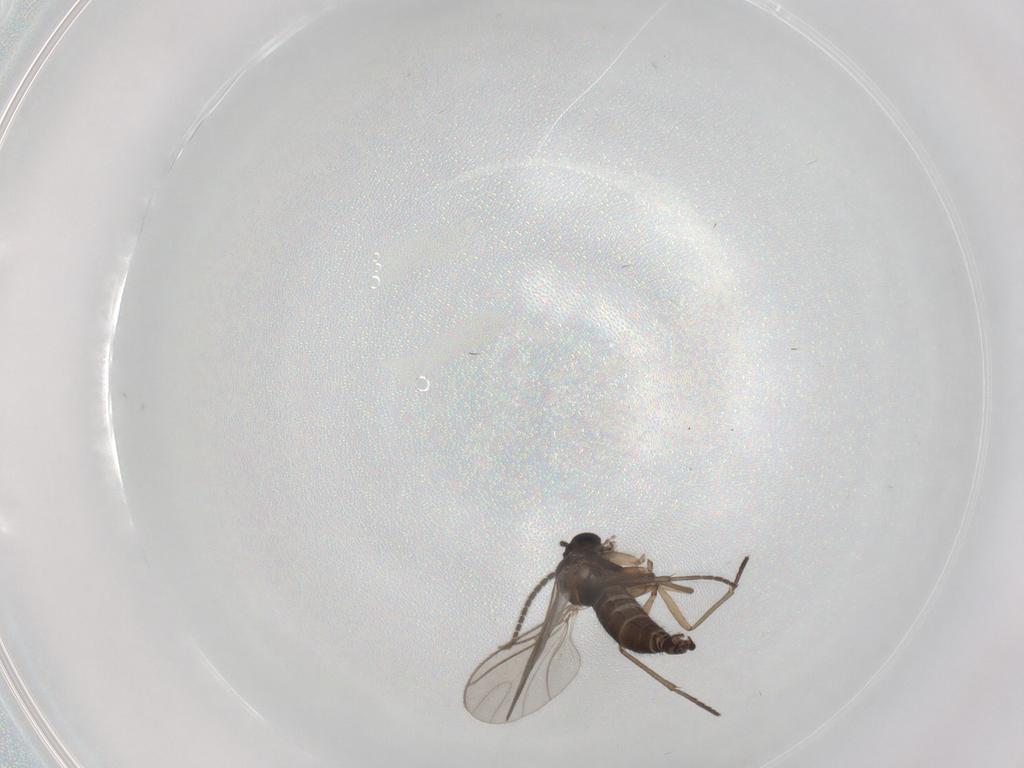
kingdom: Animalia
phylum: Arthropoda
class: Insecta
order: Diptera
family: Sciaridae
